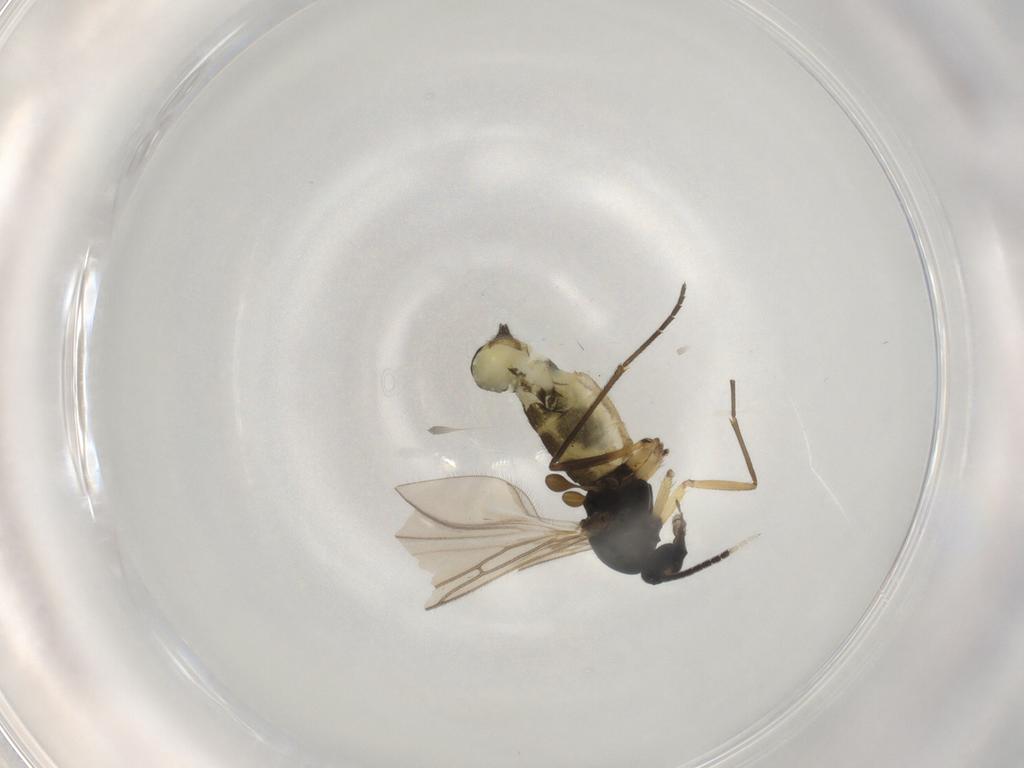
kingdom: Animalia
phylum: Arthropoda
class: Insecta
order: Diptera
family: Sciaridae
